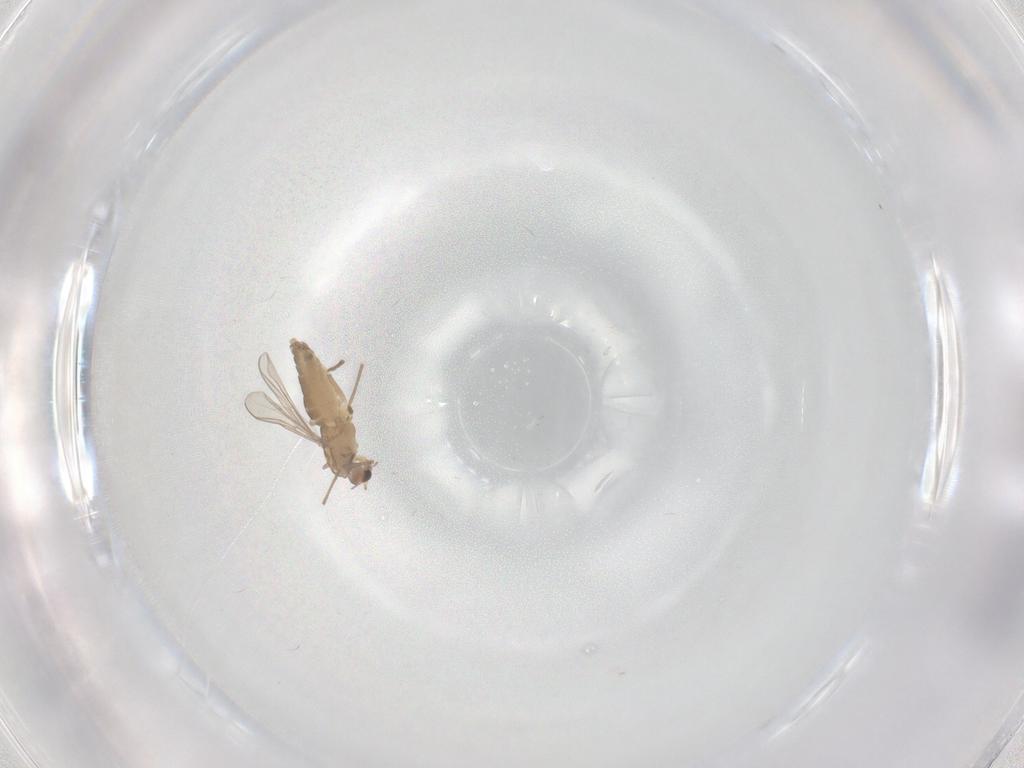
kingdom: Animalia
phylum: Arthropoda
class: Insecta
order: Diptera
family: Chironomidae
